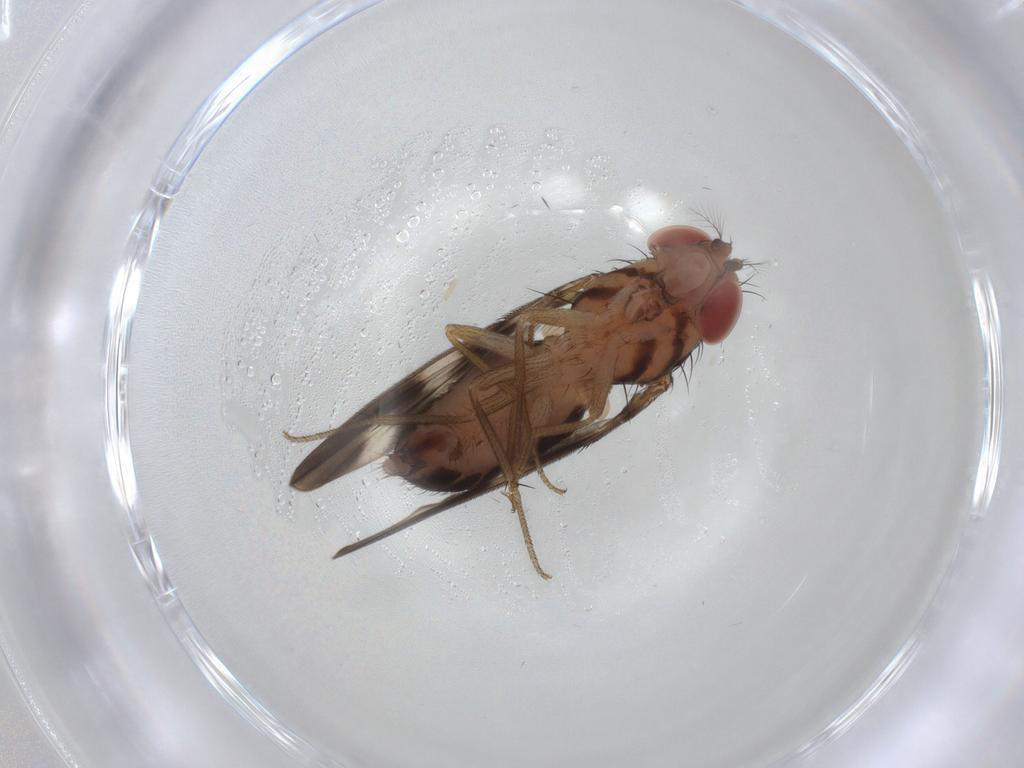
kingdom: Animalia
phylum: Arthropoda
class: Insecta
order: Diptera
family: Drosophilidae
